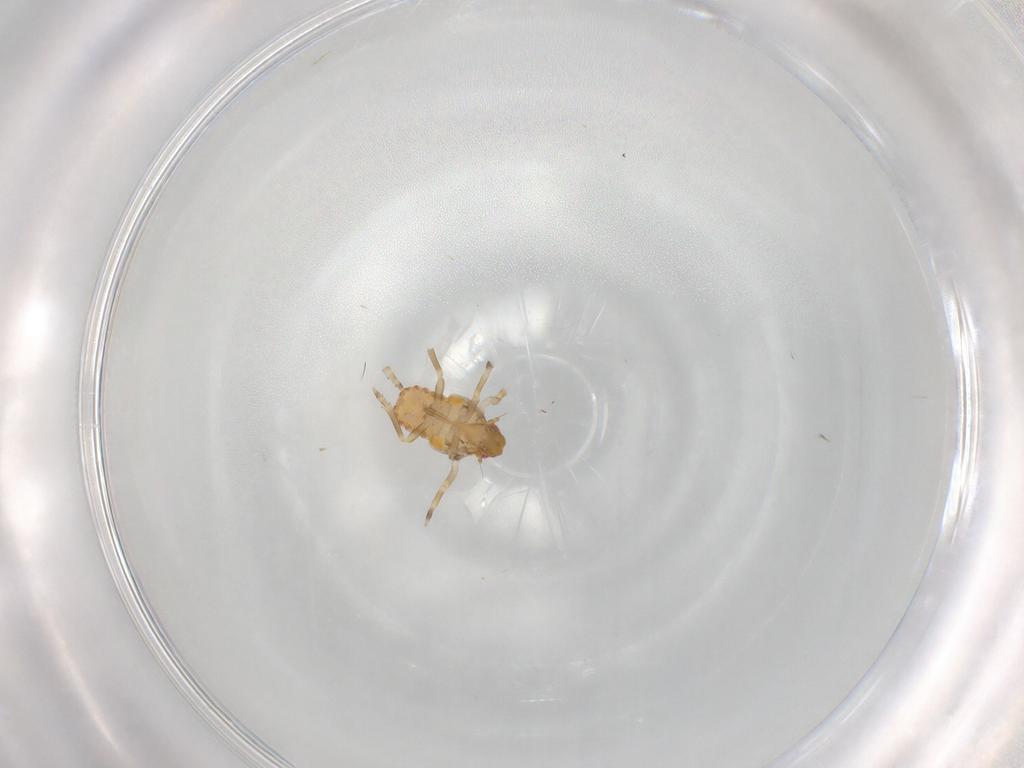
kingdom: Animalia
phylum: Arthropoda
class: Insecta
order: Hemiptera
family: Flatidae
